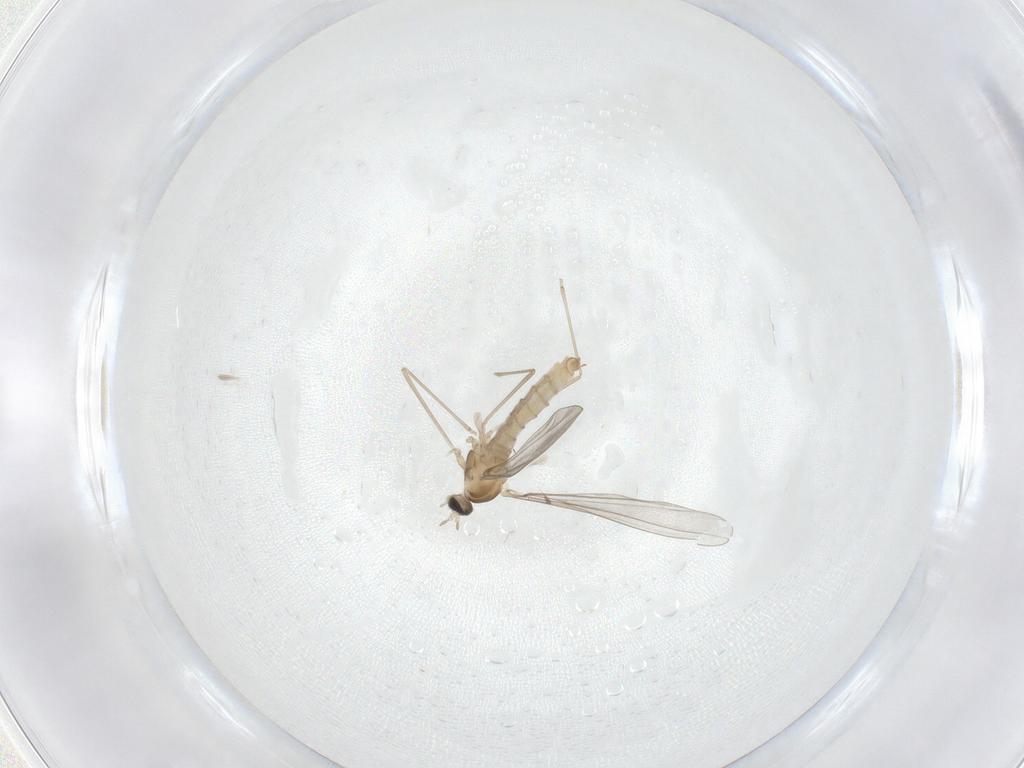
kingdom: Animalia
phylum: Arthropoda
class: Insecta
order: Diptera
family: Cecidomyiidae
